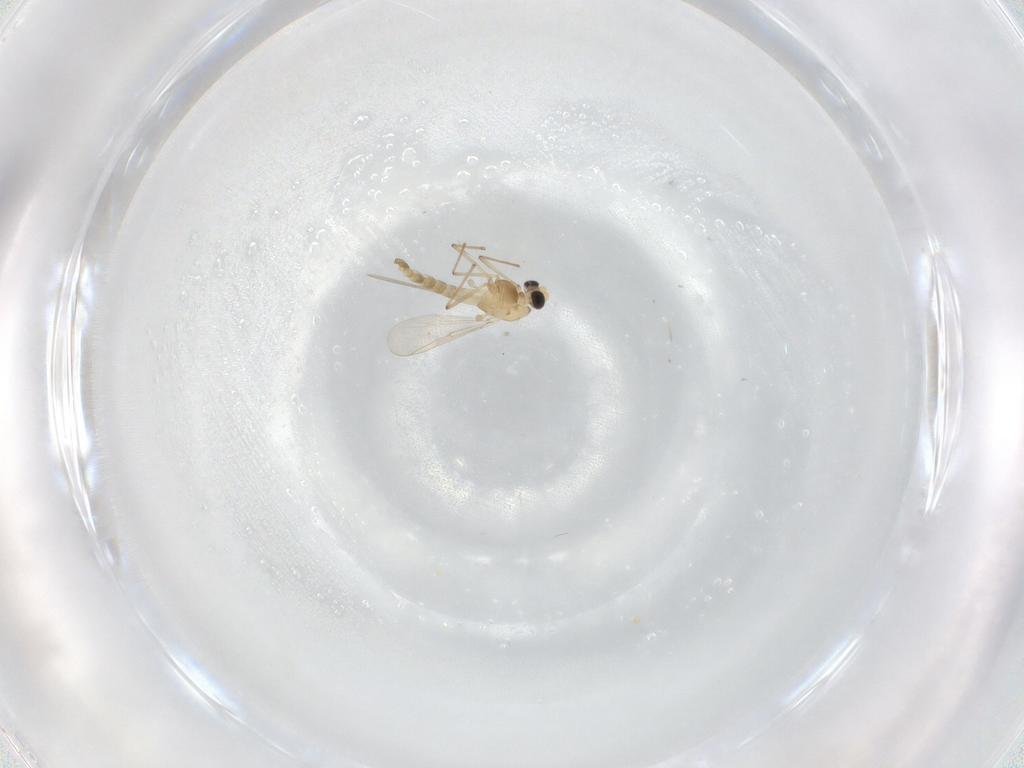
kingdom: Animalia
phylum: Arthropoda
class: Insecta
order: Diptera
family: Chironomidae
